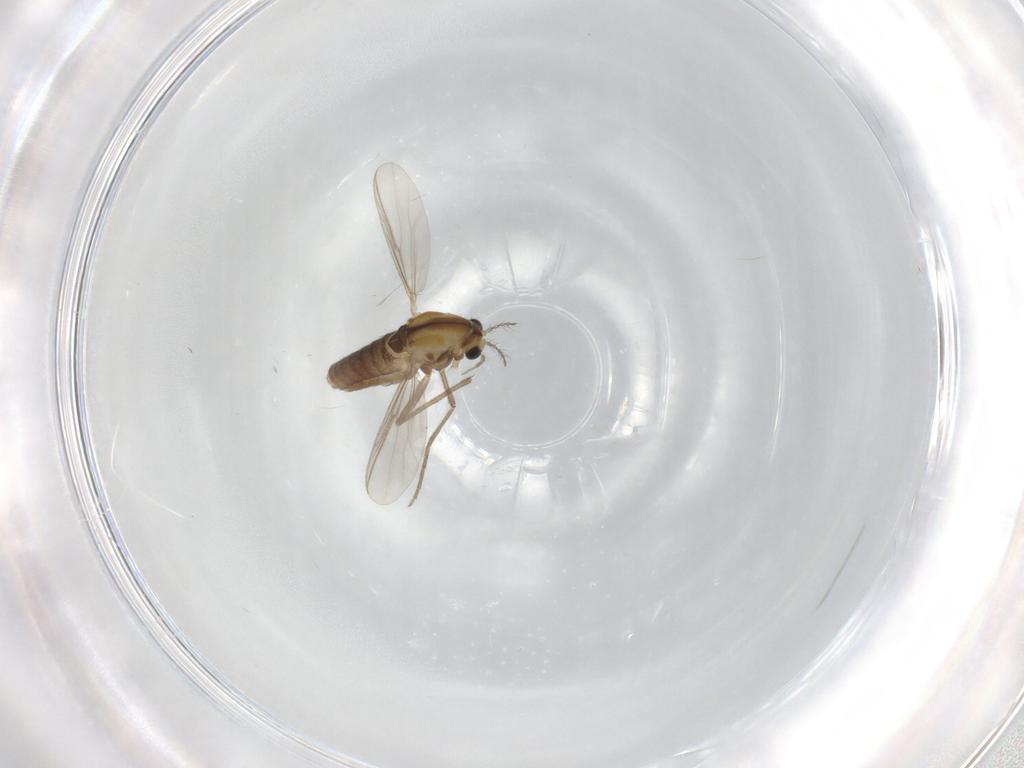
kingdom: Animalia
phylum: Arthropoda
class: Insecta
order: Diptera
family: Chironomidae
